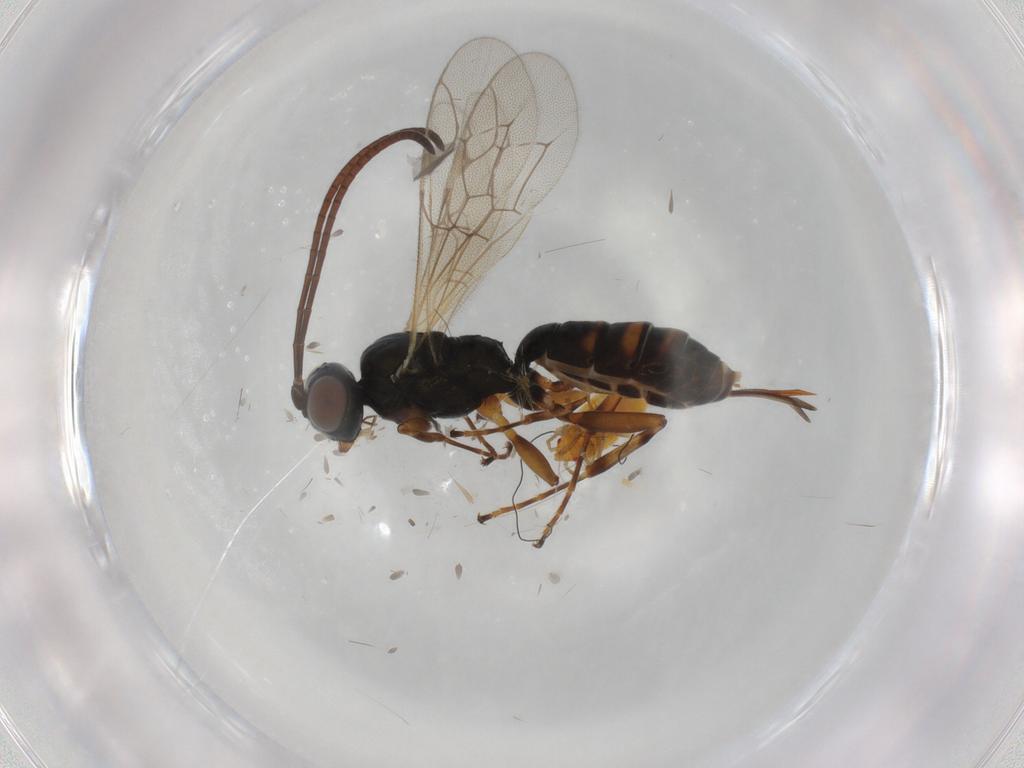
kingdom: Animalia
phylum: Arthropoda
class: Insecta
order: Hymenoptera
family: Ichneumonidae
